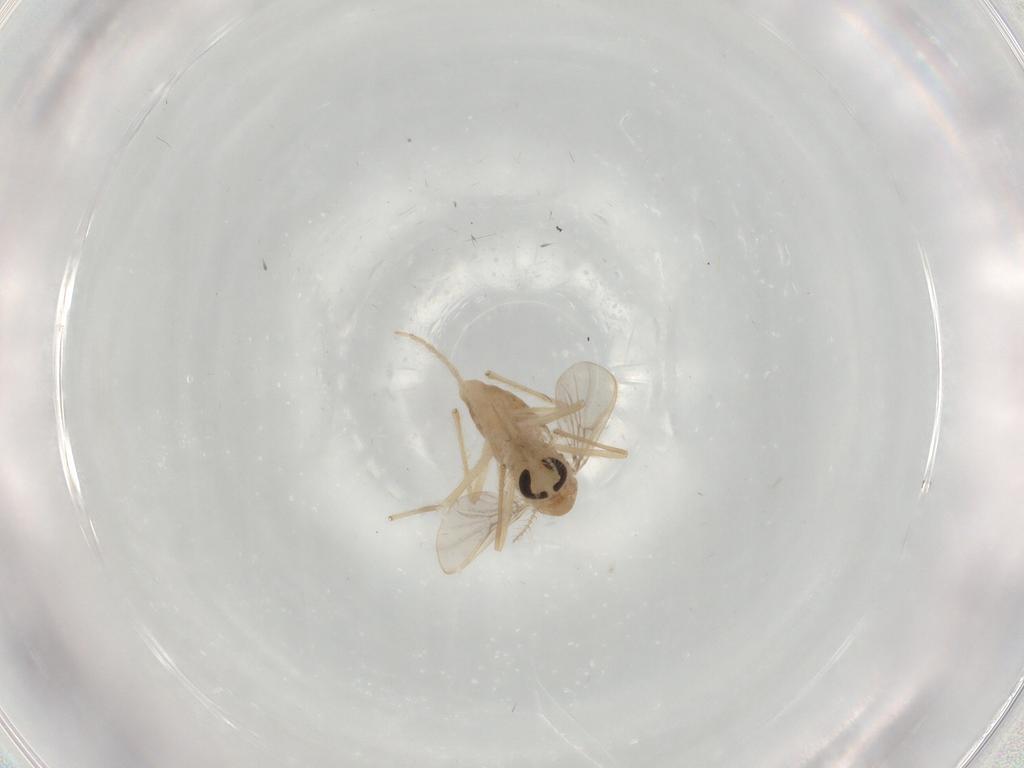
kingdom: Animalia
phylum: Arthropoda
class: Insecta
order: Diptera
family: Chironomidae
